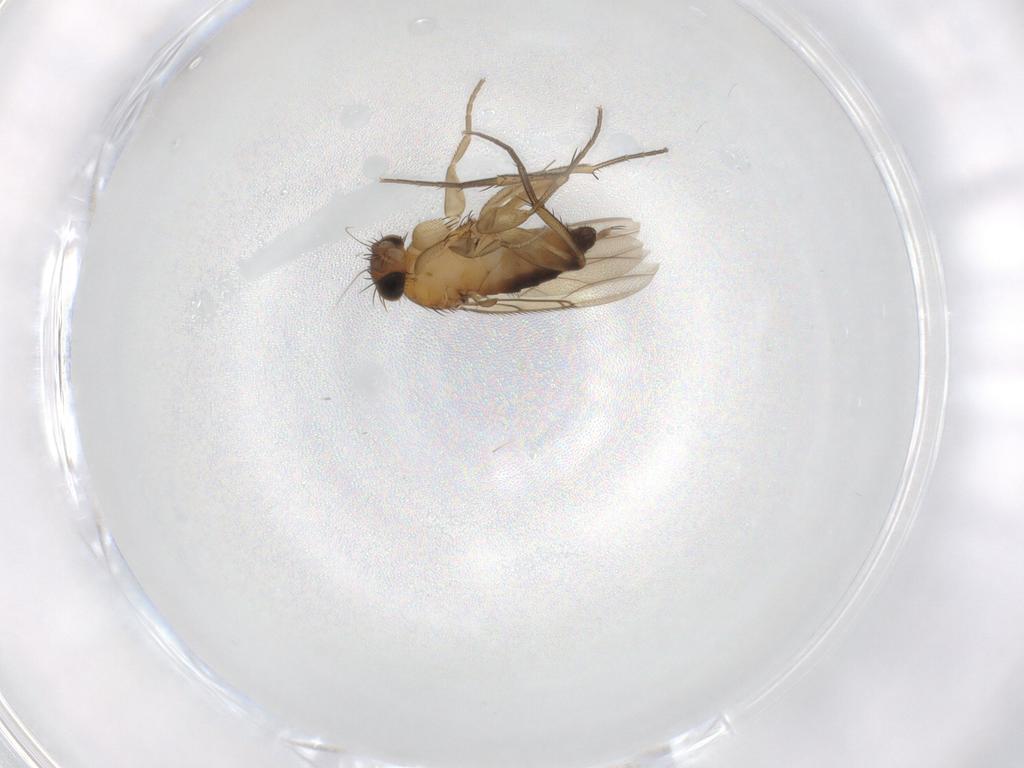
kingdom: Animalia
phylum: Arthropoda
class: Insecta
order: Diptera
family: Phoridae
